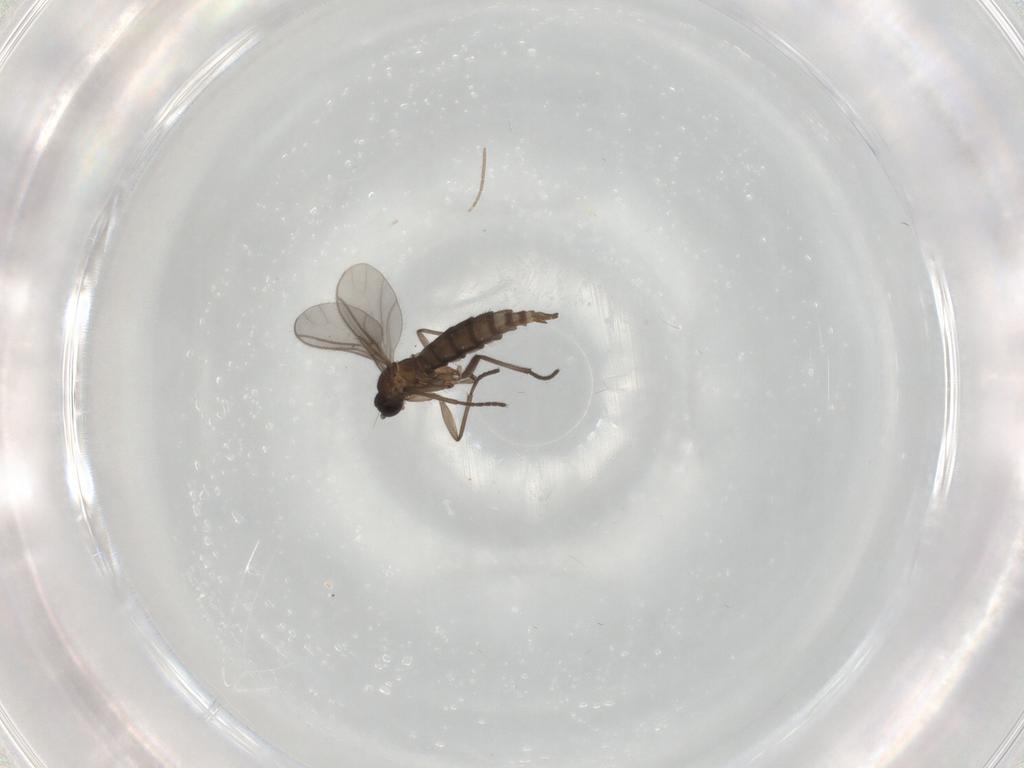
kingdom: Animalia
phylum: Arthropoda
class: Insecta
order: Diptera
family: Chironomidae
